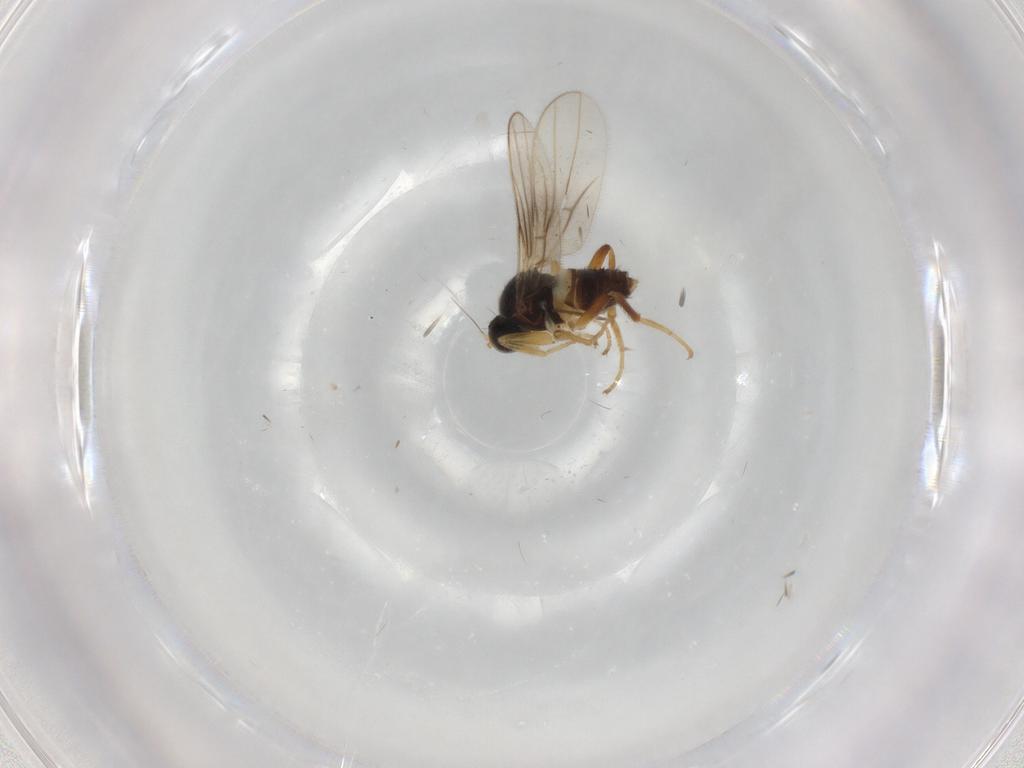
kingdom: Animalia
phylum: Arthropoda
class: Insecta
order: Diptera
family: Hybotidae
